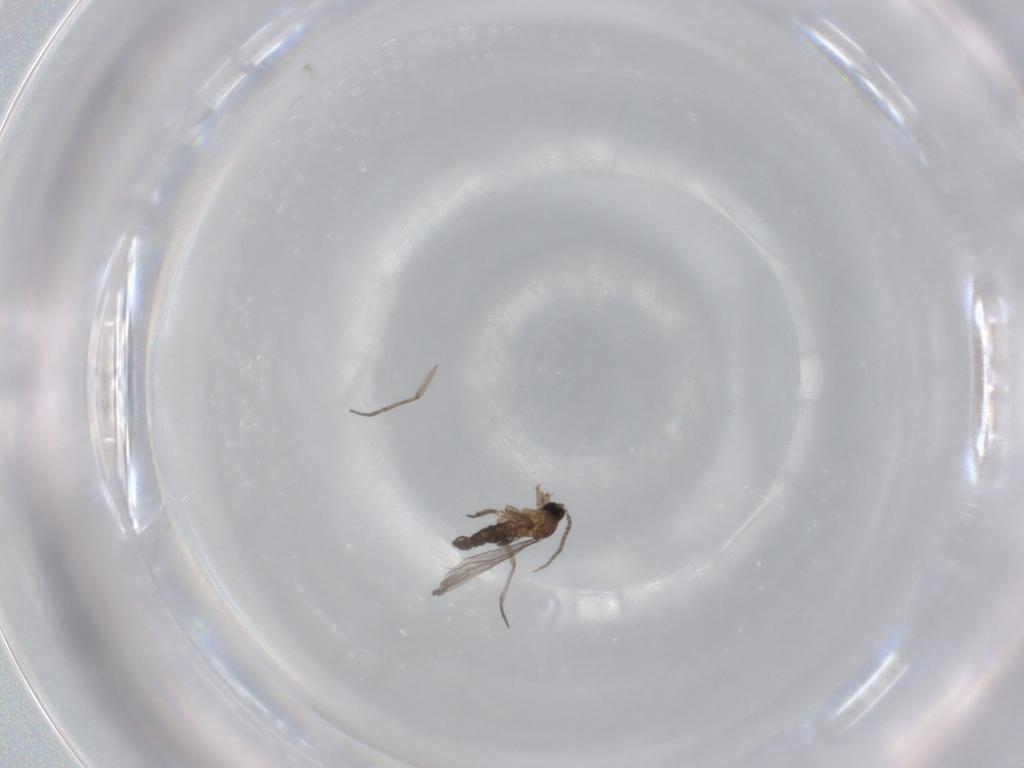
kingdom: Animalia
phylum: Arthropoda
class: Insecta
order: Diptera
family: Sciaridae
